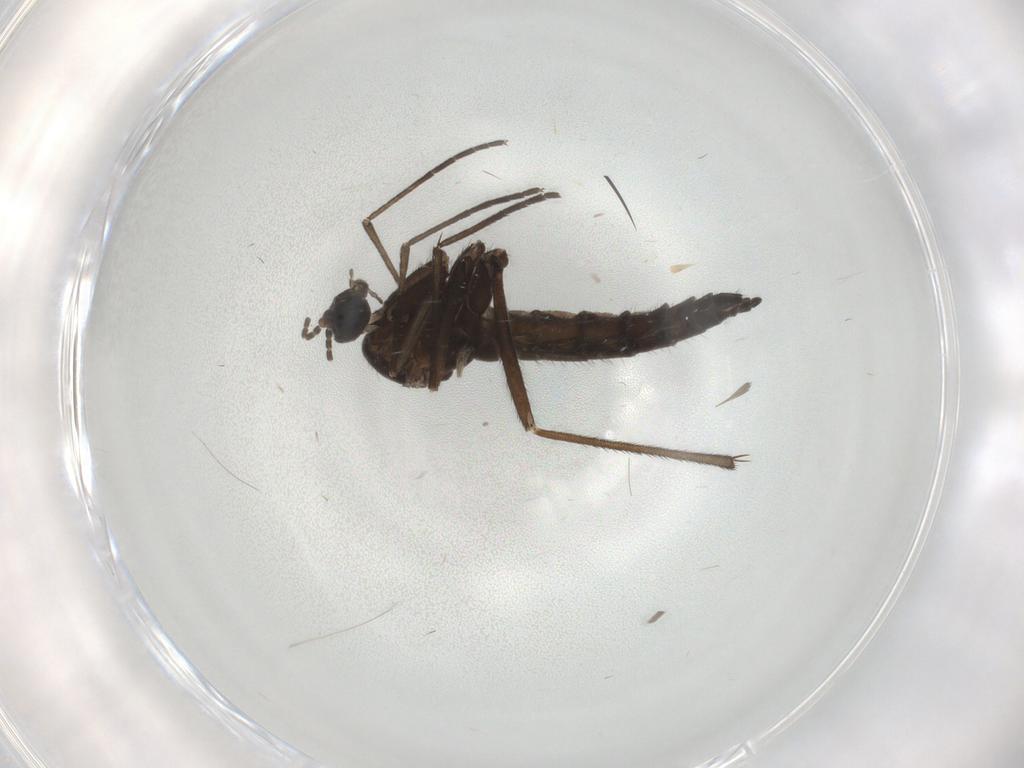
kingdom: Animalia
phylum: Arthropoda
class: Insecta
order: Diptera
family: Sciaridae
